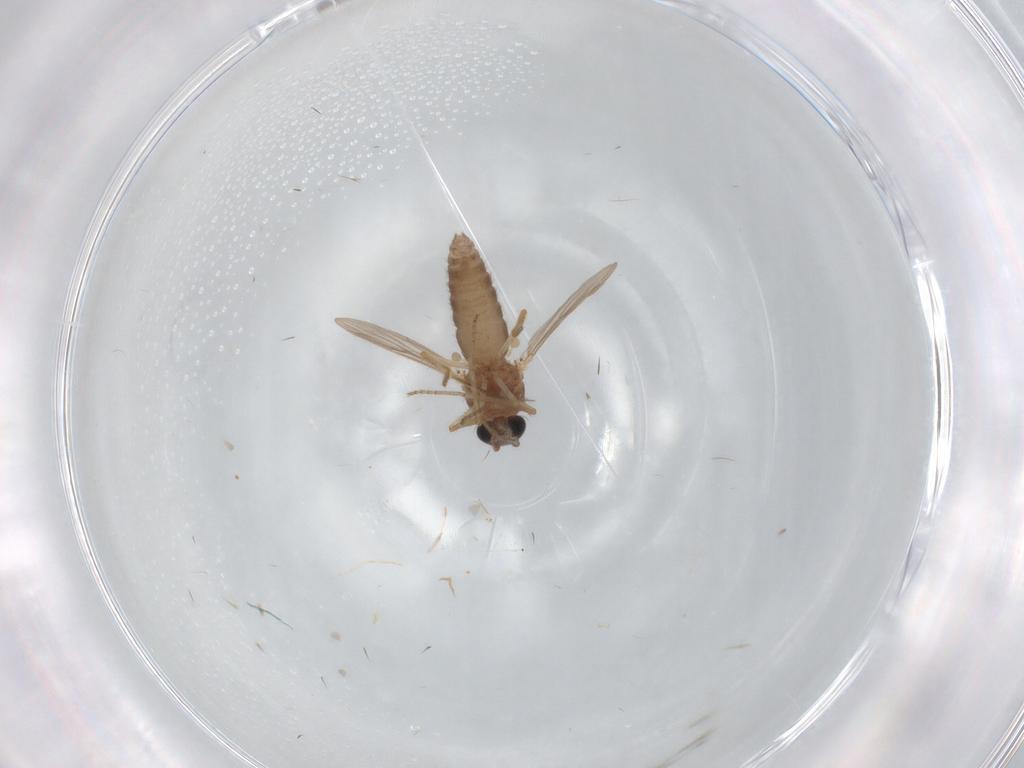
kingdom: Animalia
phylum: Arthropoda
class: Insecta
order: Diptera
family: Ceratopogonidae
